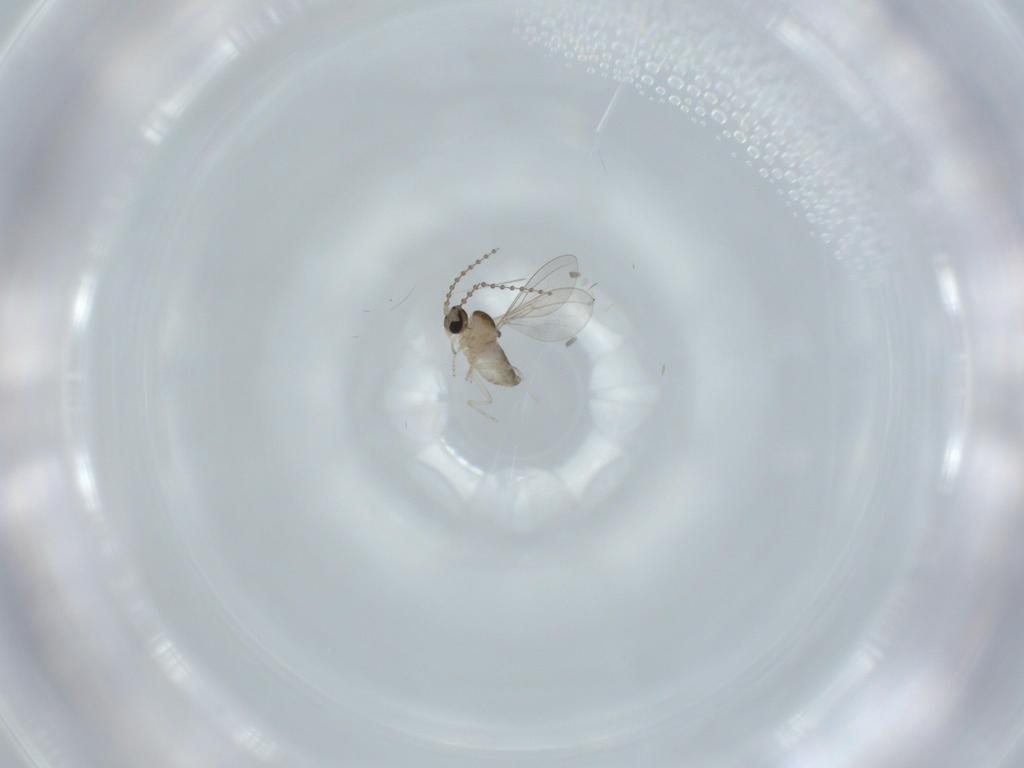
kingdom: Animalia
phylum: Arthropoda
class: Insecta
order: Diptera
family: Cecidomyiidae
